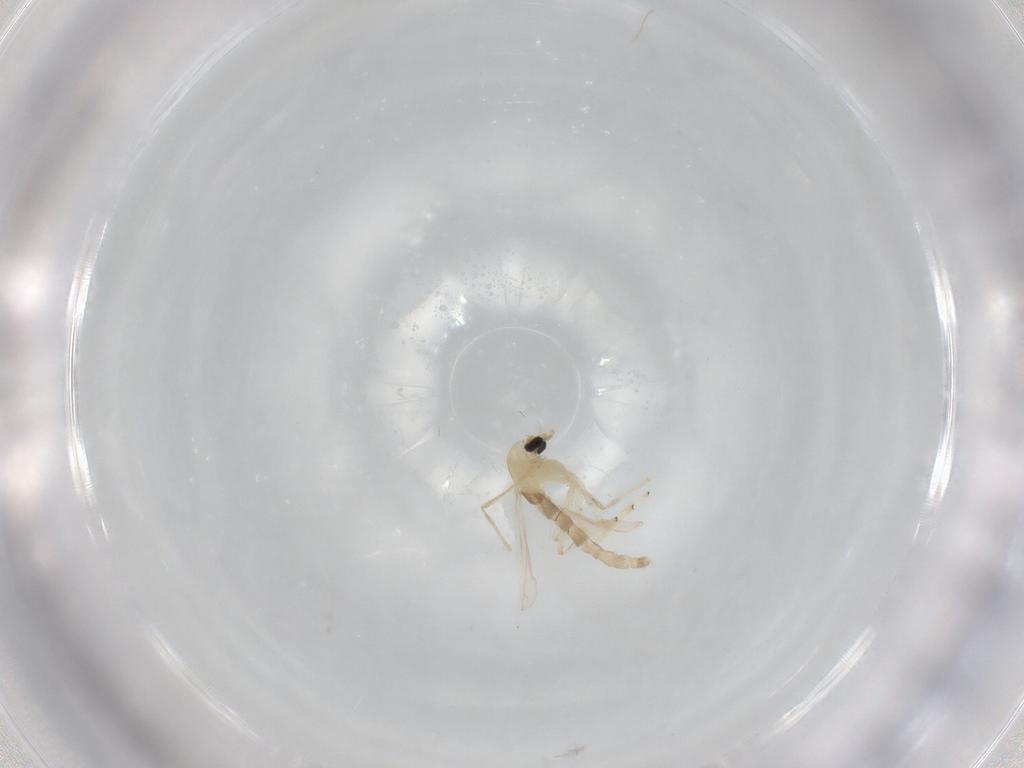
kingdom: Animalia
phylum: Arthropoda
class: Insecta
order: Diptera
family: Chironomidae
